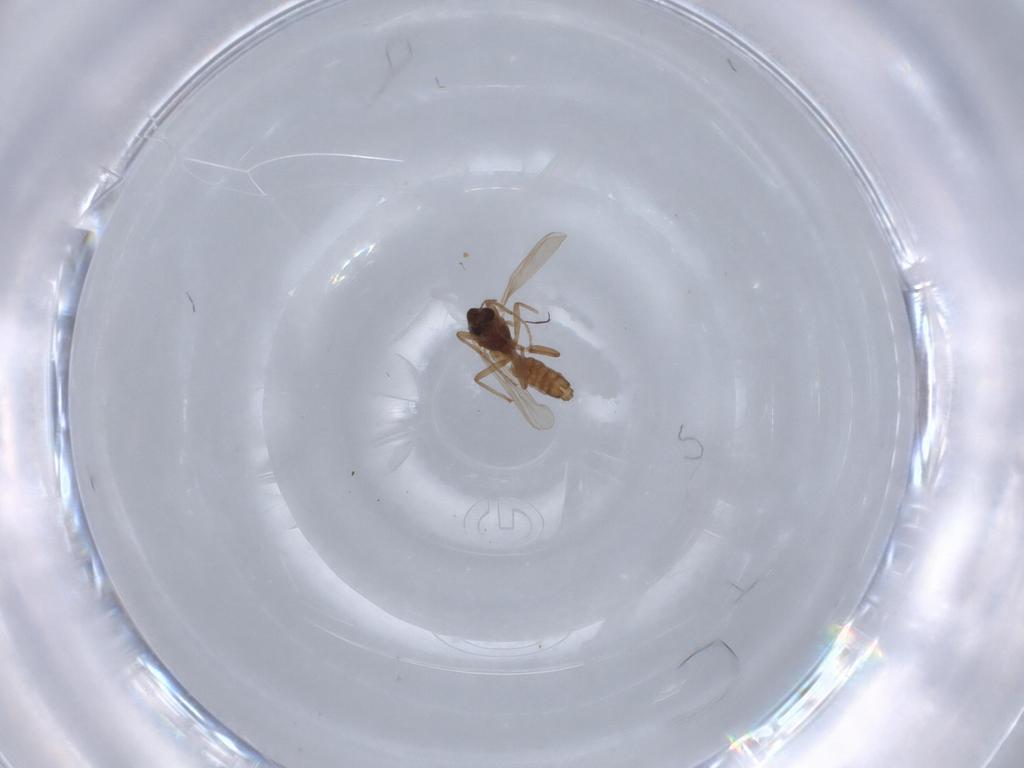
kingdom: Animalia
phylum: Arthropoda
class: Insecta
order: Diptera
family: Chironomidae
